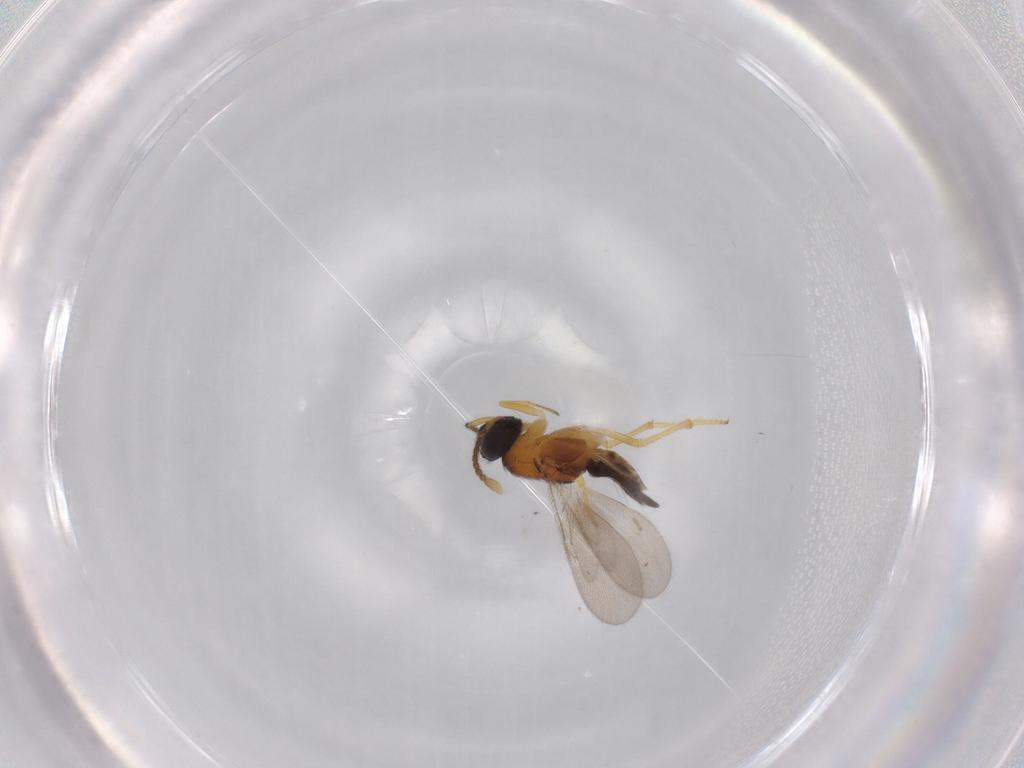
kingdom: Animalia
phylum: Arthropoda
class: Insecta
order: Hymenoptera
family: Encyrtidae
